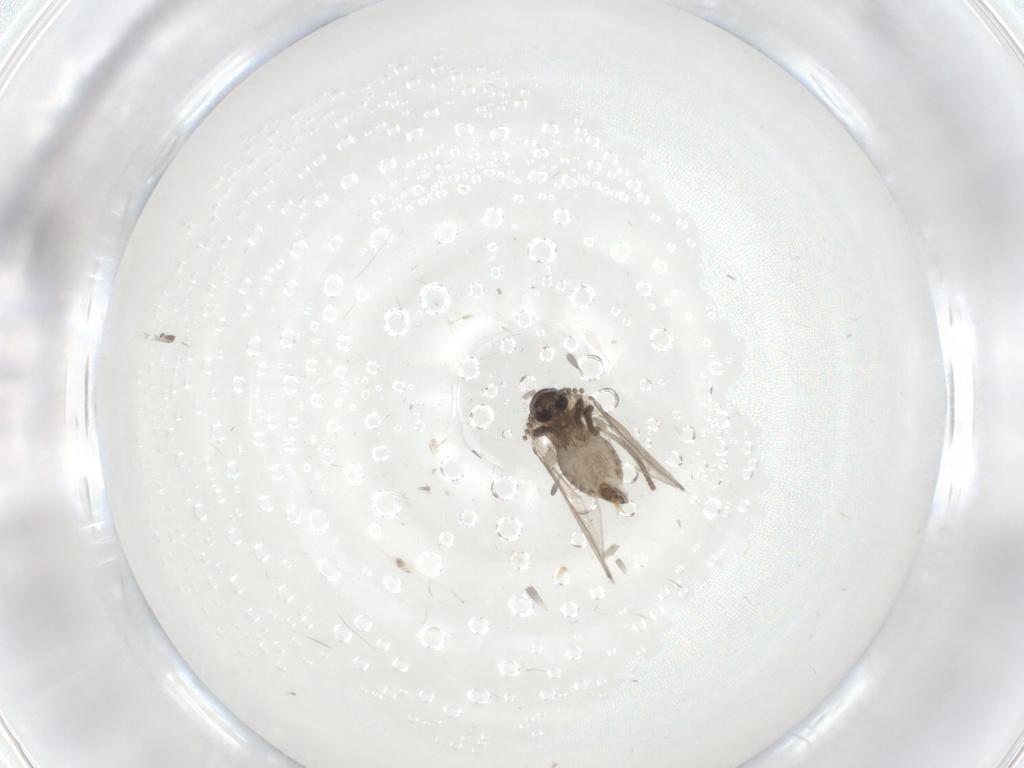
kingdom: Animalia
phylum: Arthropoda
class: Insecta
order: Diptera
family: Psychodidae
